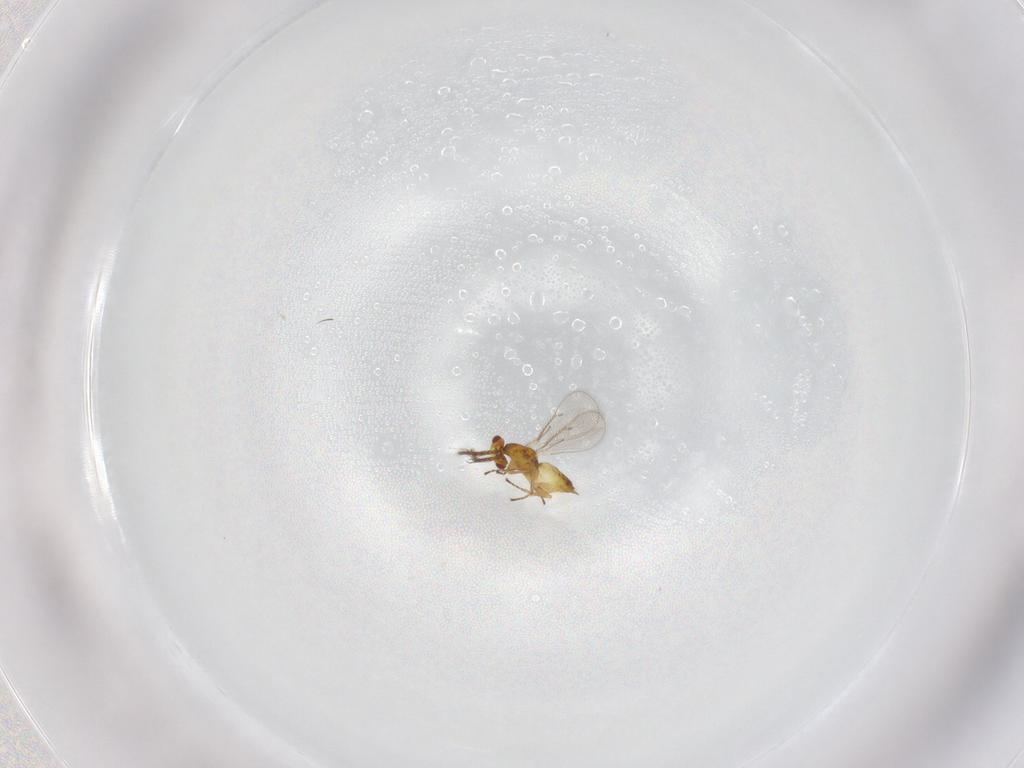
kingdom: Animalia
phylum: Arthropoda
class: Insecta
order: Hymenoptera
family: Eulophidae
